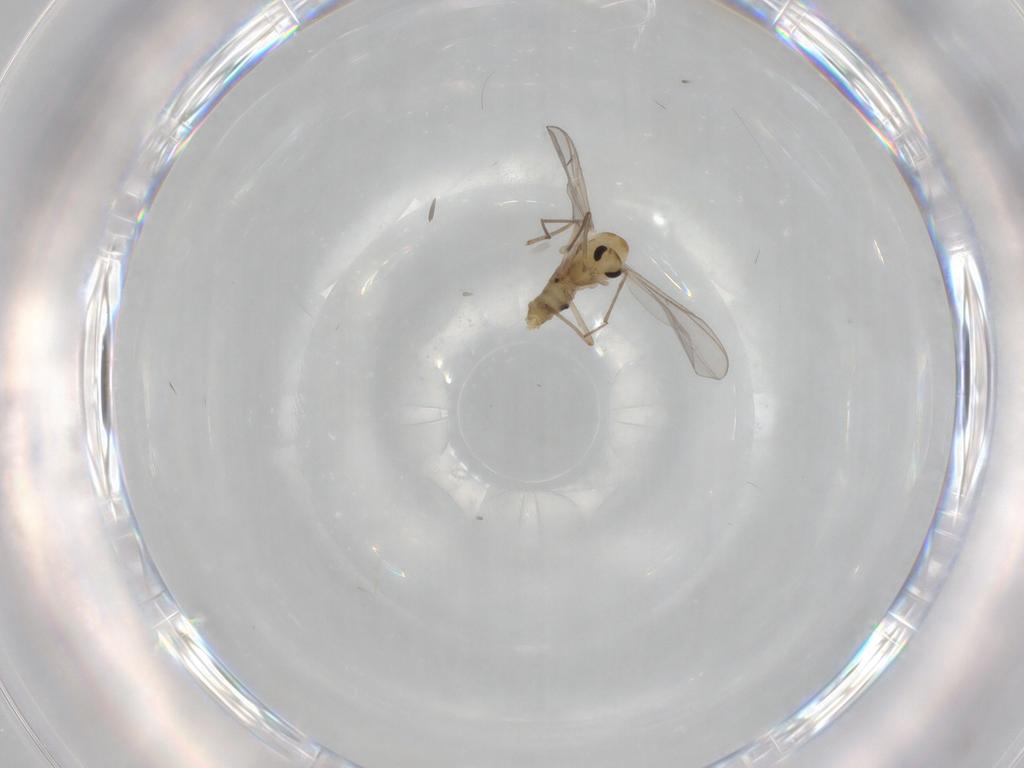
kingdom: Animalia
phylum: Arthropoda
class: Insecta
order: Diptera
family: Chironomidae
